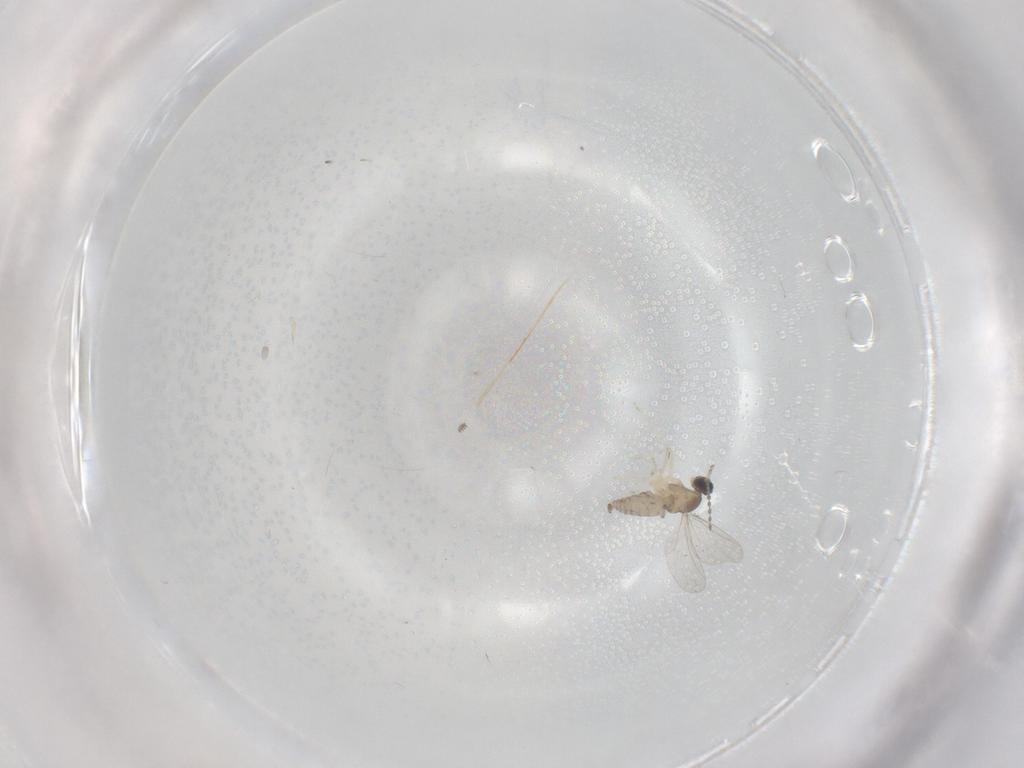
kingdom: Animalia
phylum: Arthropoda
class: Insecta
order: Diptera
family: Cecidomyiidae
